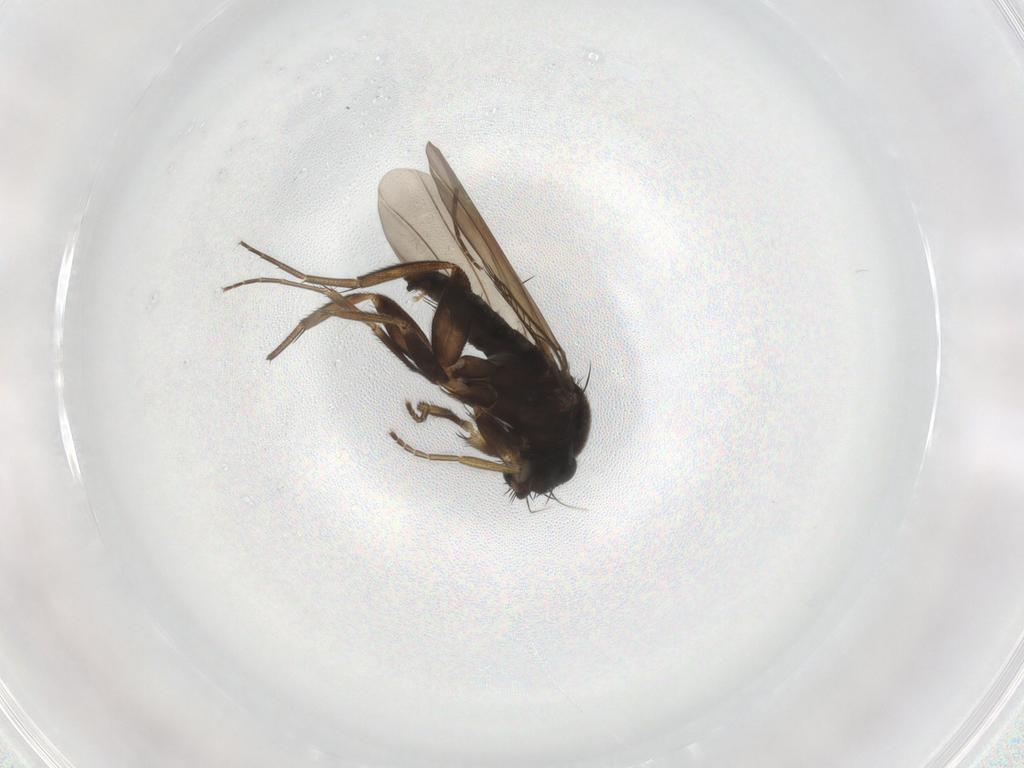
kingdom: Animalia
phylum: Arthropoda
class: Insecta
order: Diptera
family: Phoridae
